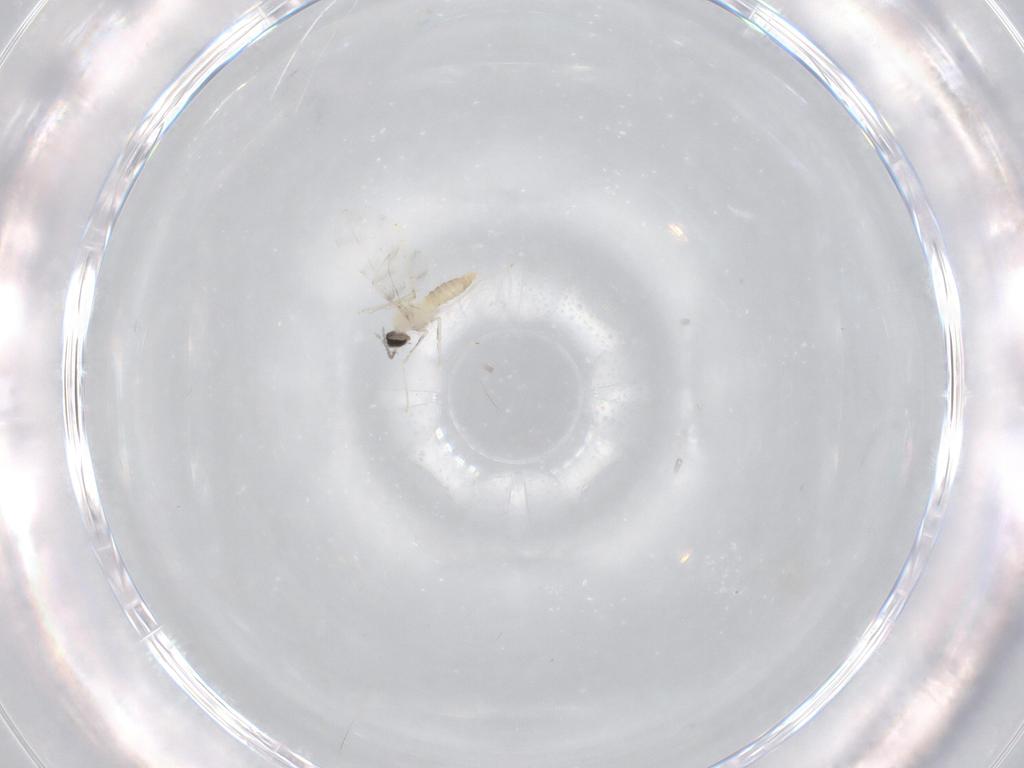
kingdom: Animalia
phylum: Arthropoda
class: Insecta
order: Diptera
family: Cecidomyiidae
